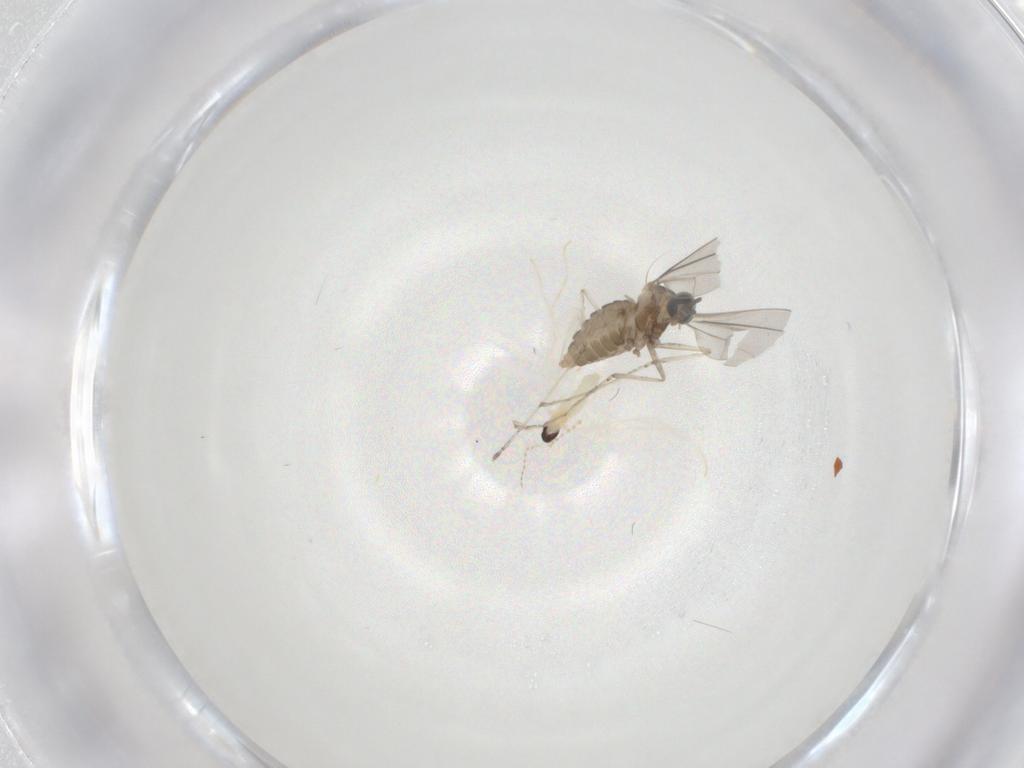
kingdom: Animalia
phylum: Arthropoda
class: Insecta
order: Diptera
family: Cecidomyiidae
